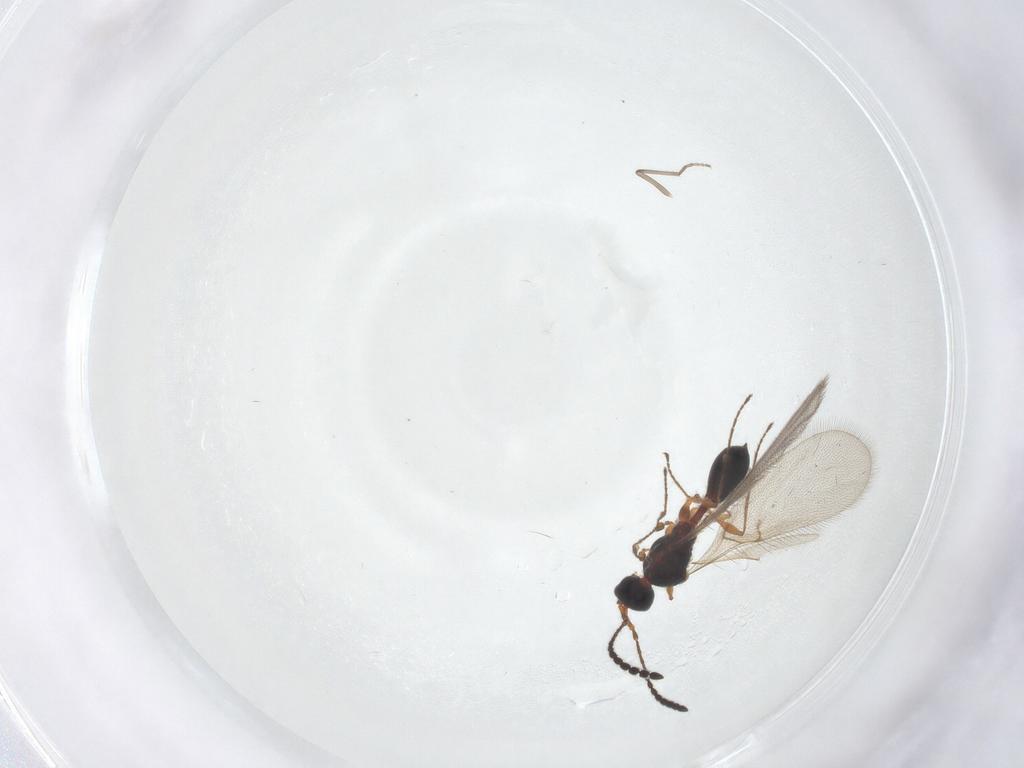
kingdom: Animalia
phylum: Arthropoda
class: Insecta
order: Hymenoptera
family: Diapriidae
